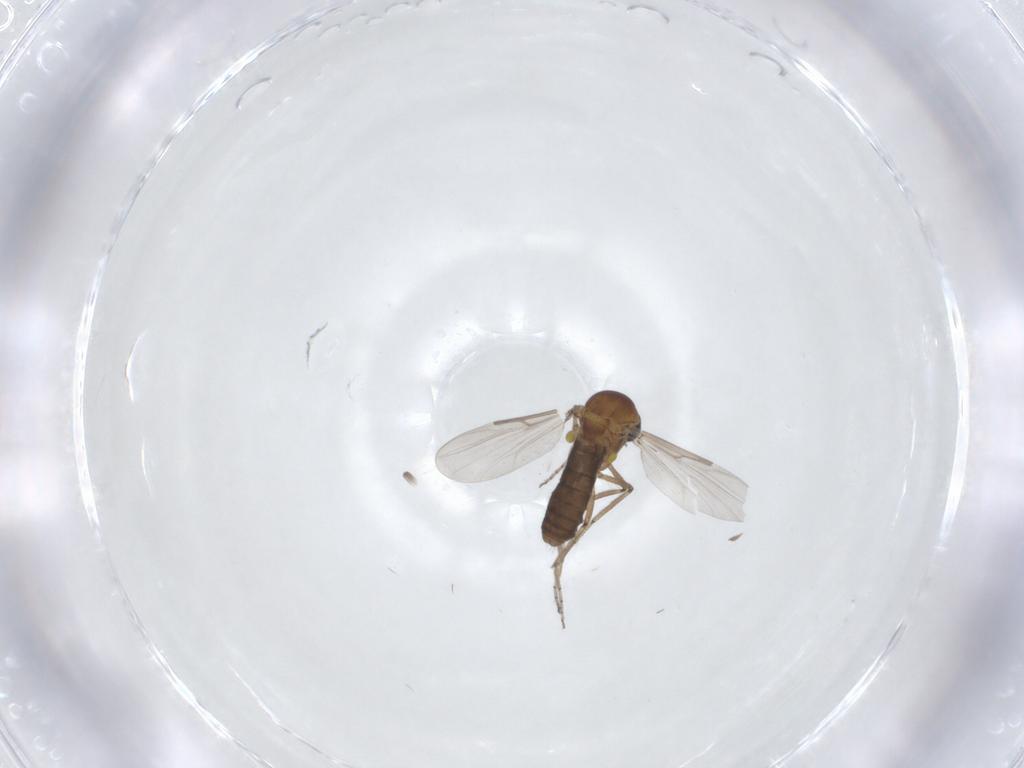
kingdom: Animalia
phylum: Arthropoda
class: Insecta
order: Diptera
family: Ceratopogonidae
